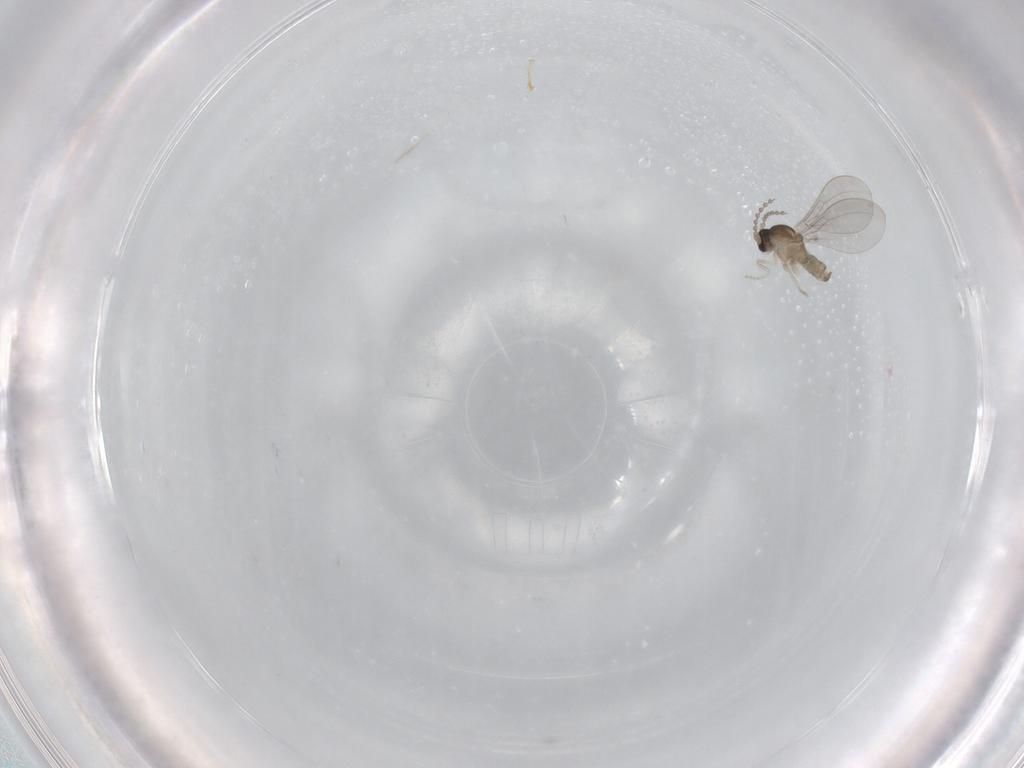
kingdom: Animalia
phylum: Arthropoda
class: Insecta
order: Diptera
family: Cecidomyiidae
